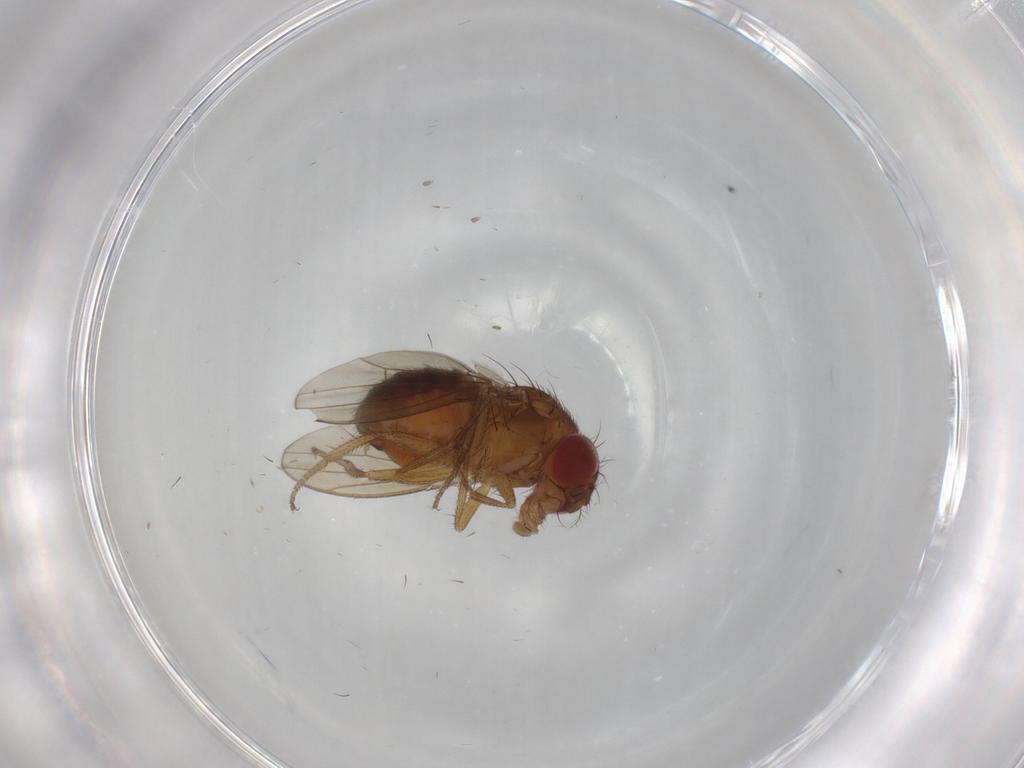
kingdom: Animalia
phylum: Arthropoda
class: Insecta
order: Diptera
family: Drosophilidae
